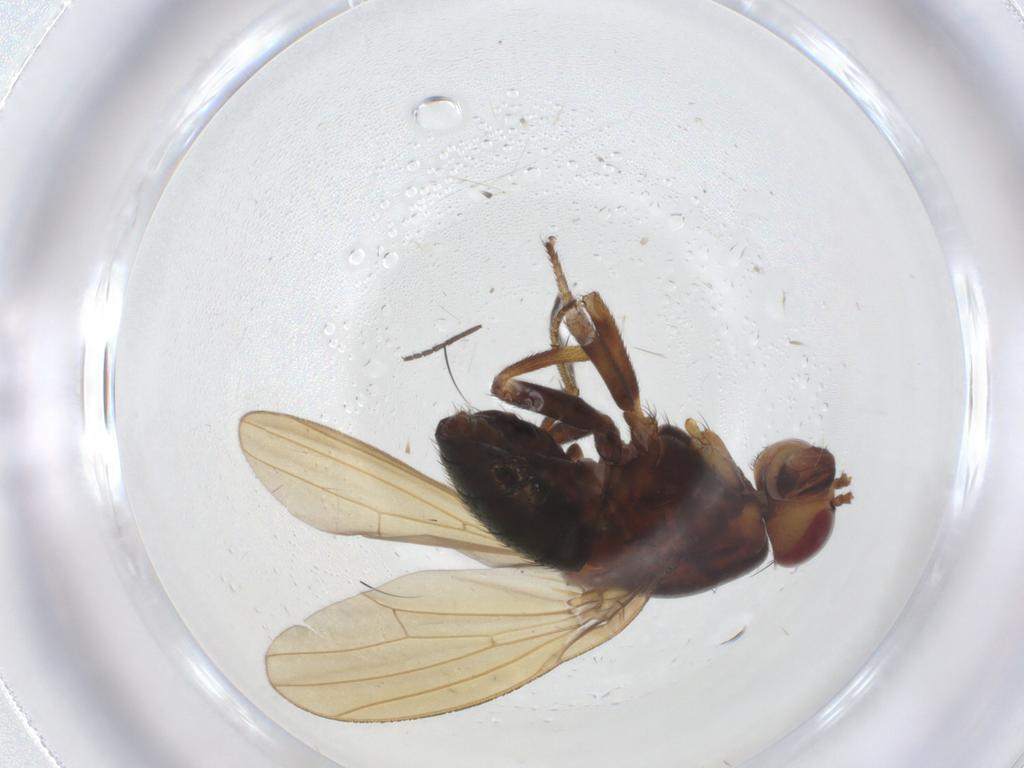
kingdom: Animalia
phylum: Arthropoda
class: Insecta
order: Diptera
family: Lauxaniidae
